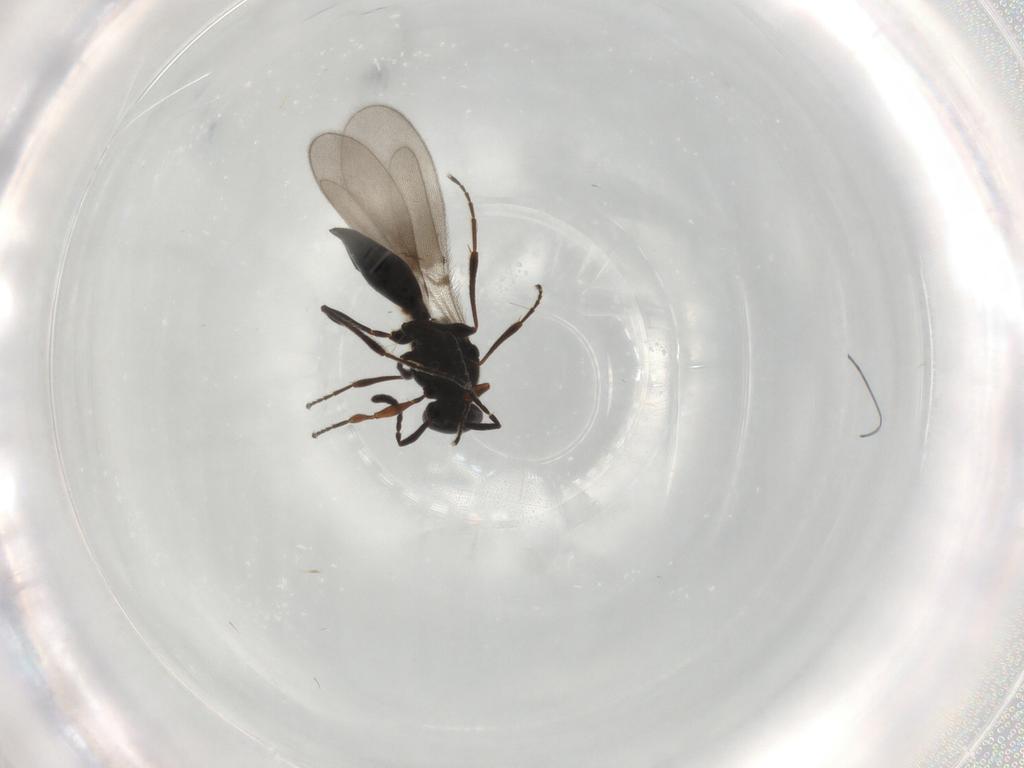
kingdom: Animalia
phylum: Arthropoda
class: Insecta
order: Hymenoptera
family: Platygastridae
